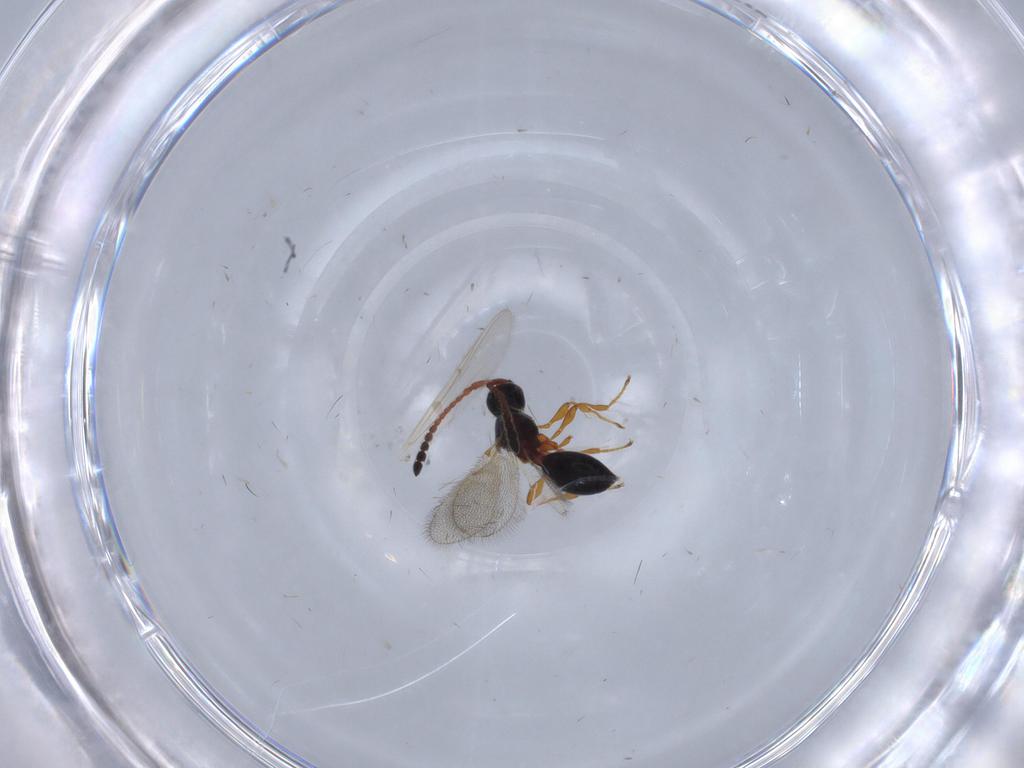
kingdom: Animalia
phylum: Arthropoda
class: Insecta
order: Hymenoptera
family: Diapriidae
